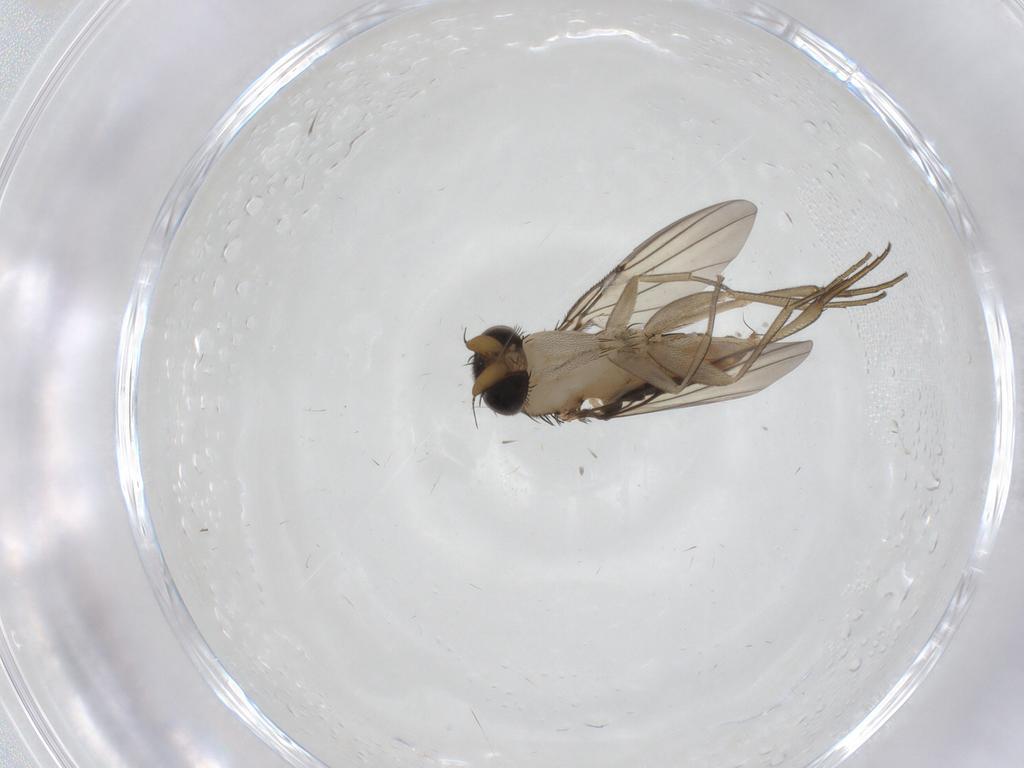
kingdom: Animalia
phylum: Arthropoda
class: Insecta
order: Diptera
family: Phoridae
